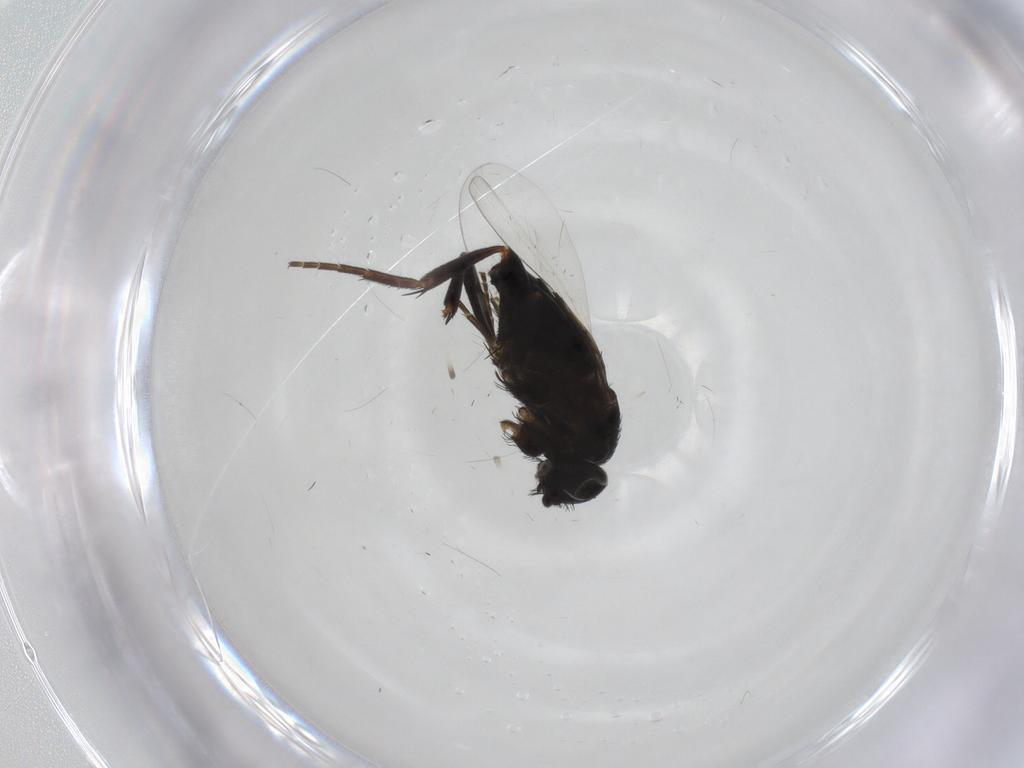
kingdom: Animalia
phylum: Arthropoda
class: Insecta
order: Diptera
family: Phoridae
